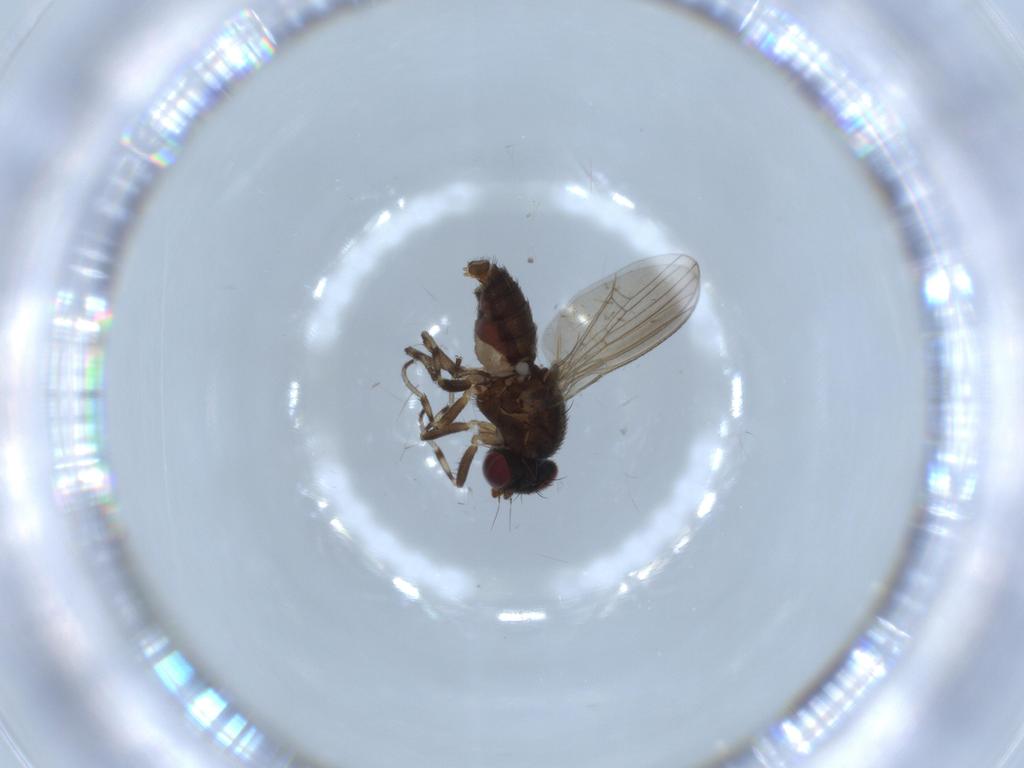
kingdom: Animalia
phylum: Arthropoda
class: Insecta
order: Diptera
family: Heleomyzidae
